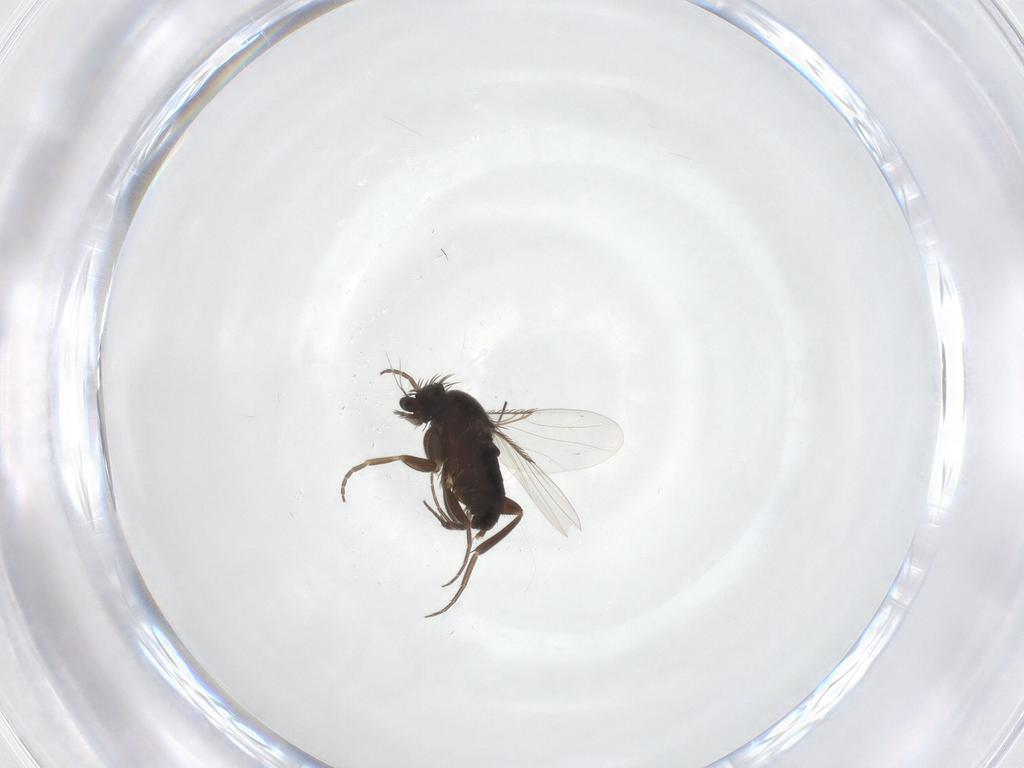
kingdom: Animalia
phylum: Arthropoda
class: Insecta
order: Diptera
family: Phoridae
